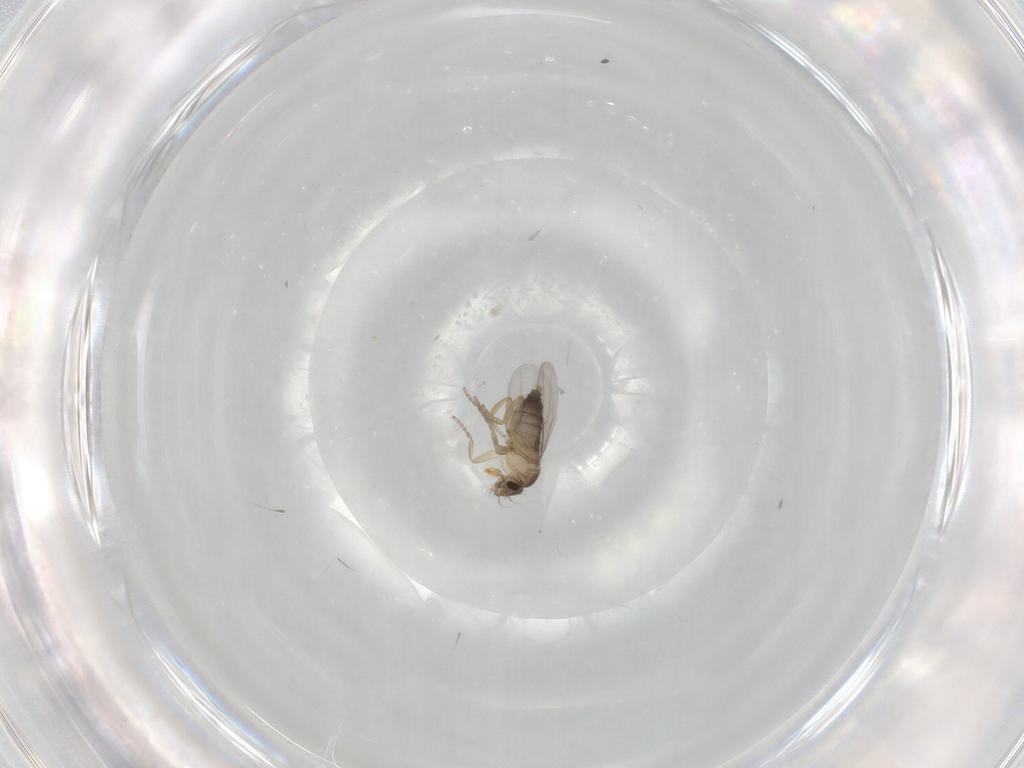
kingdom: Animalia
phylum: Arthropoda
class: Insecta
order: Diptera
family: Phoridae
